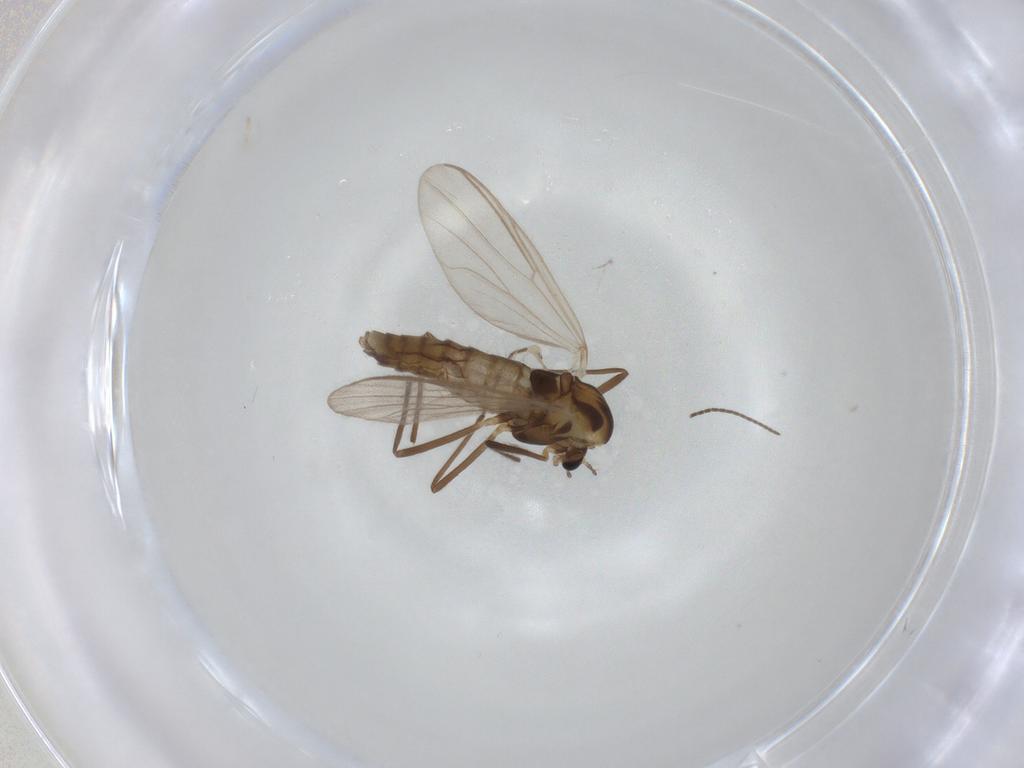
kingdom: Animalia
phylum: Arthropoda
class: Insecta
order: Diptera
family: Chironomidae
